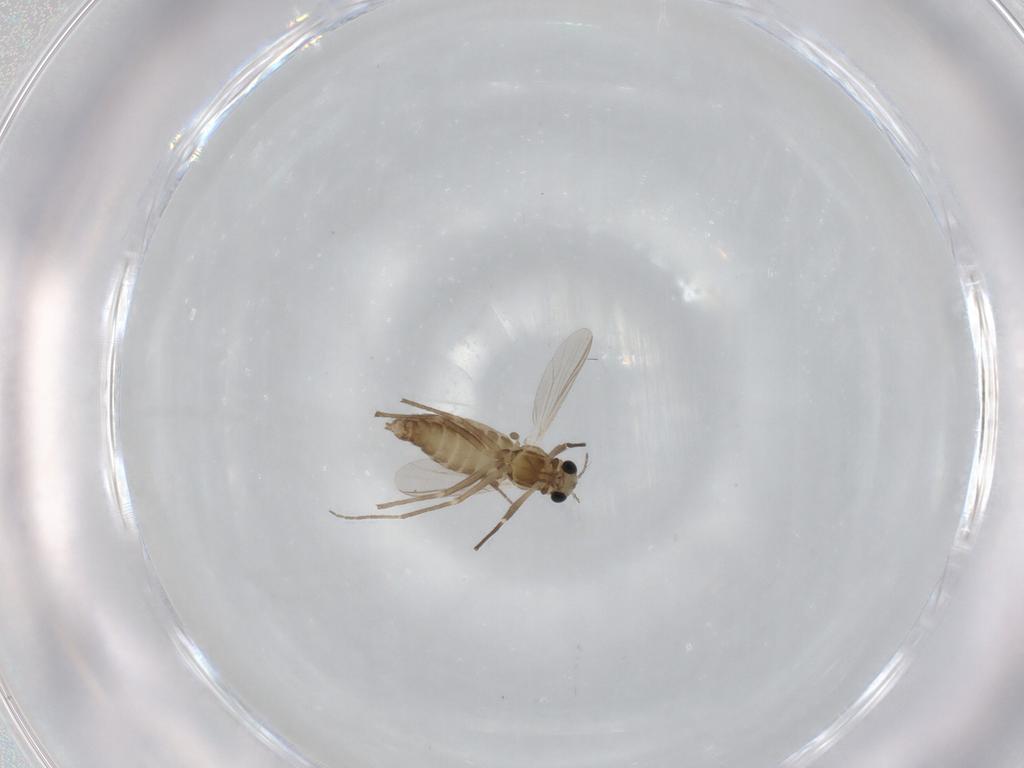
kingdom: Animalia
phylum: Arthropoda
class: Insecta
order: Diptera
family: Chironomidae
